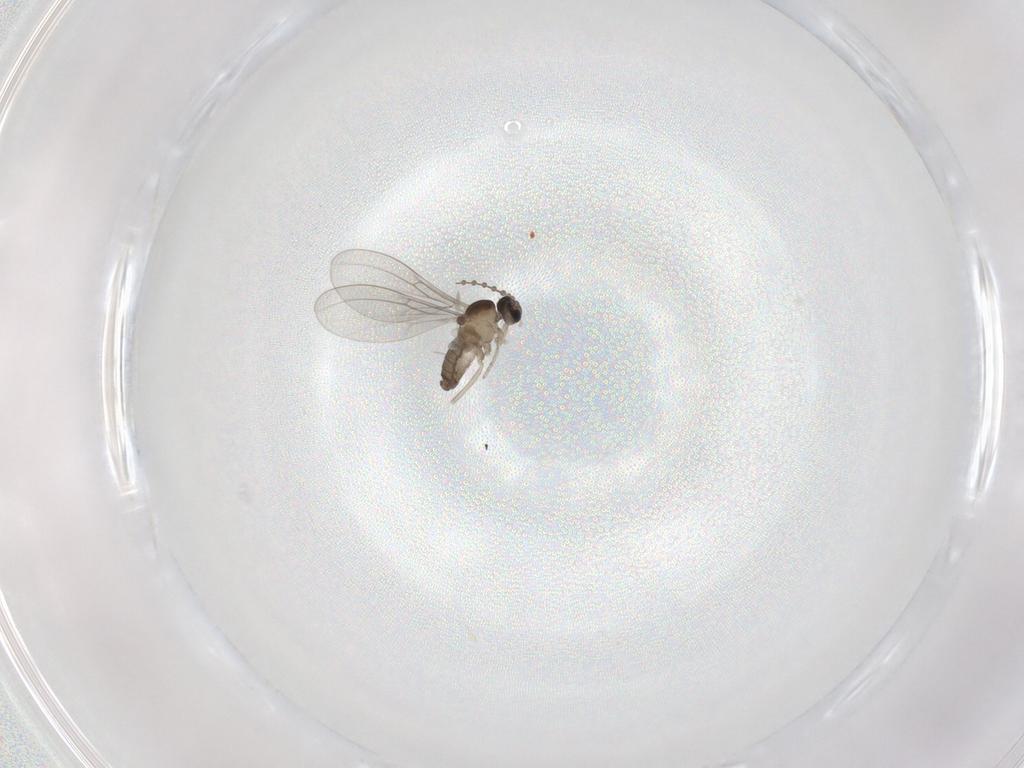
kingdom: Animalia
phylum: Arthropoda
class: Insecta
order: Diptera
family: Cecidomyiidae
